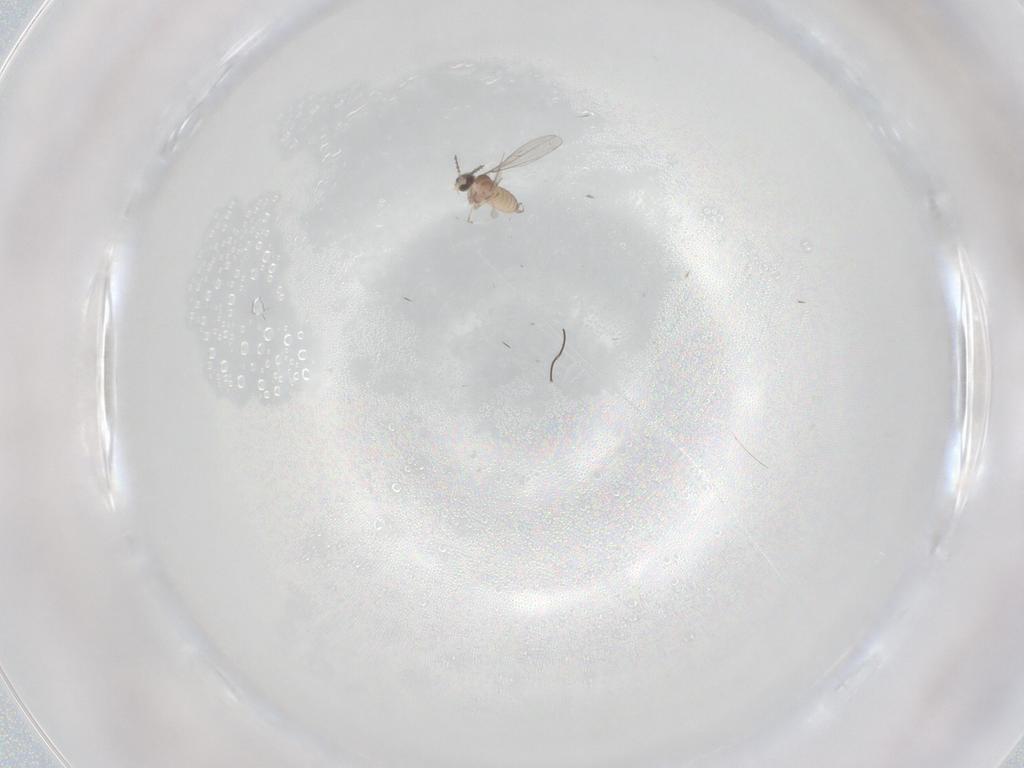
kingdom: Animalia
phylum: Arthropoda
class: Insecta
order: Diptera
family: Cecidomyiidae
